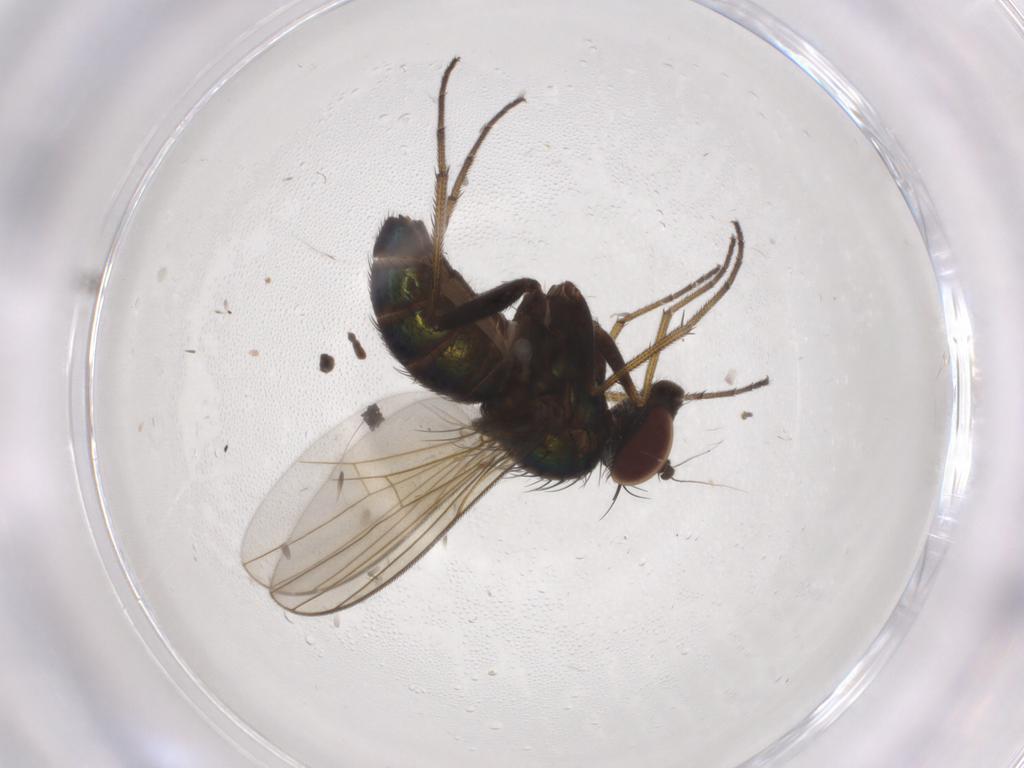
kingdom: Animalia
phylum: Arthropoda
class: Insecta
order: Diptera
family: Dolichopodidae
